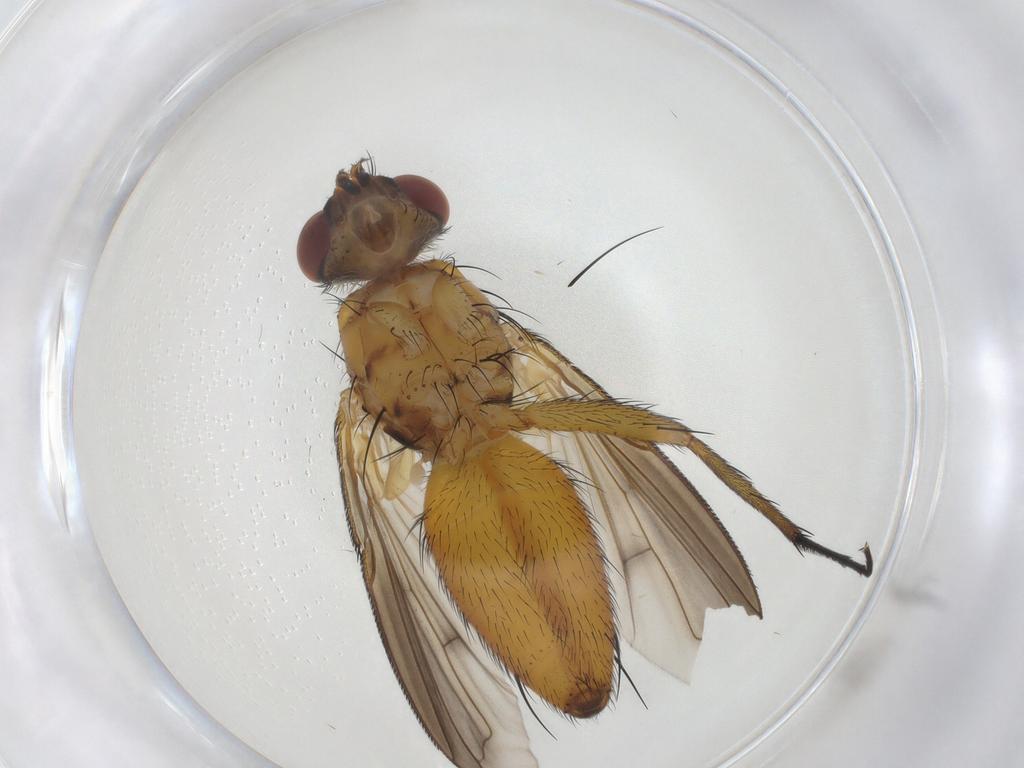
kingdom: Animalia
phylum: Arthropoda
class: Insecta
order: Diptera
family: Tachinidae
